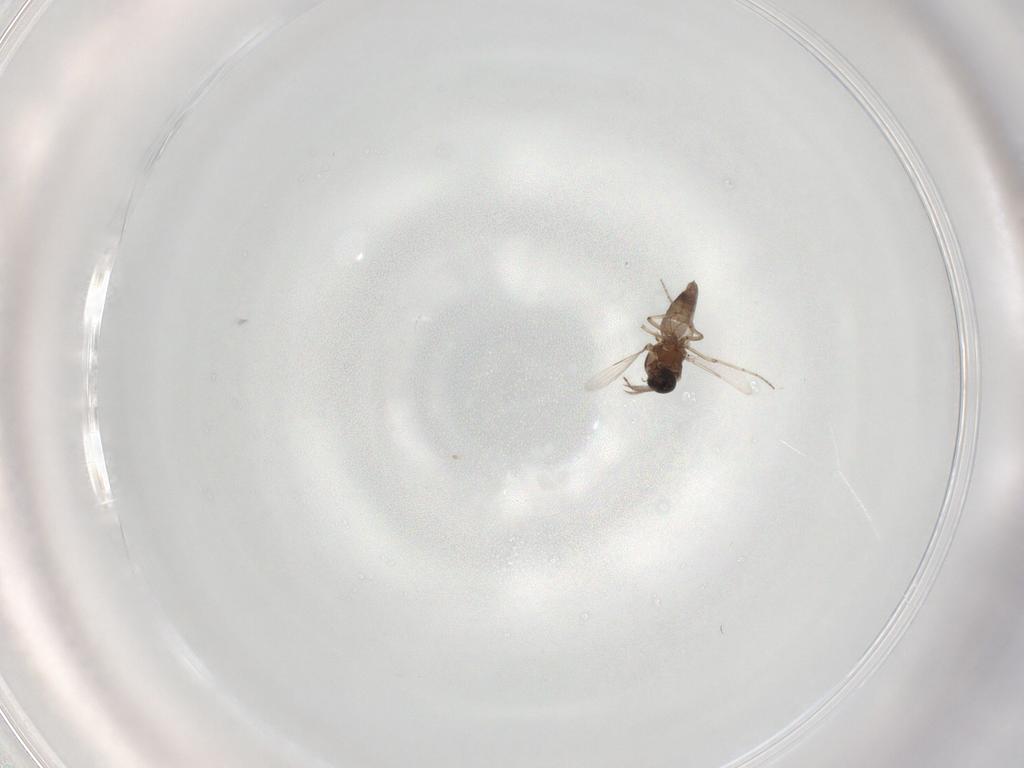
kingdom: Animalia
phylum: Arthropoda
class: Insecta
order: Diptera
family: Ceratopogonidae
